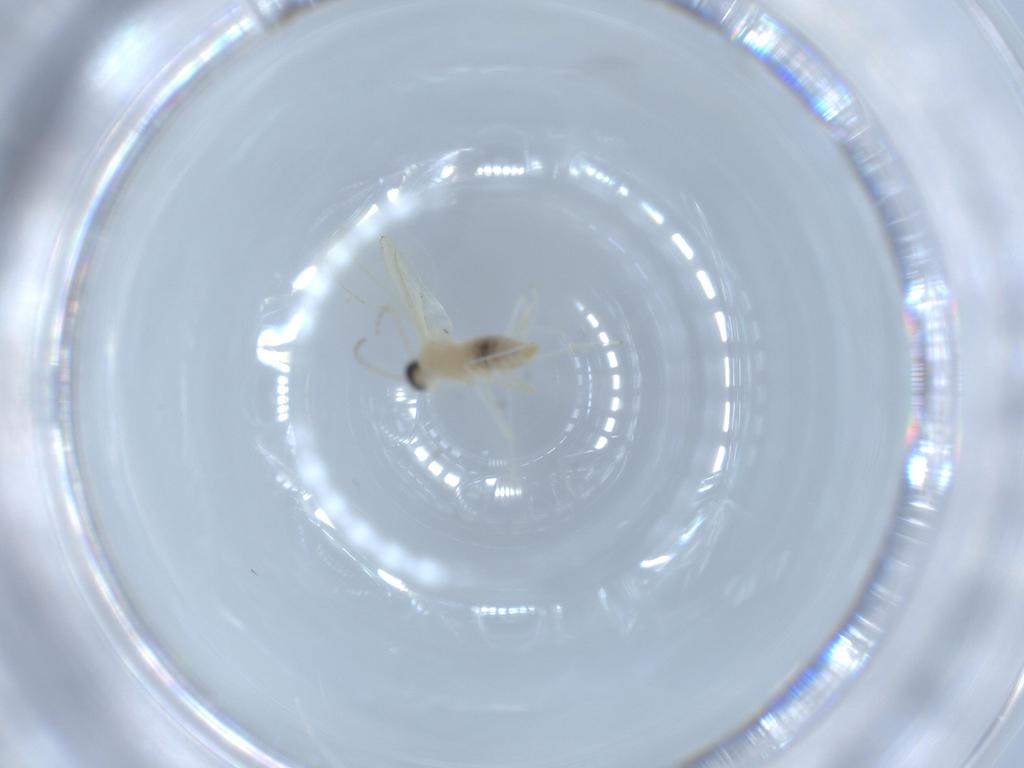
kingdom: Animalia
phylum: Arthropoda
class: Insecta
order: Diptera
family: Cecidomyiidae
